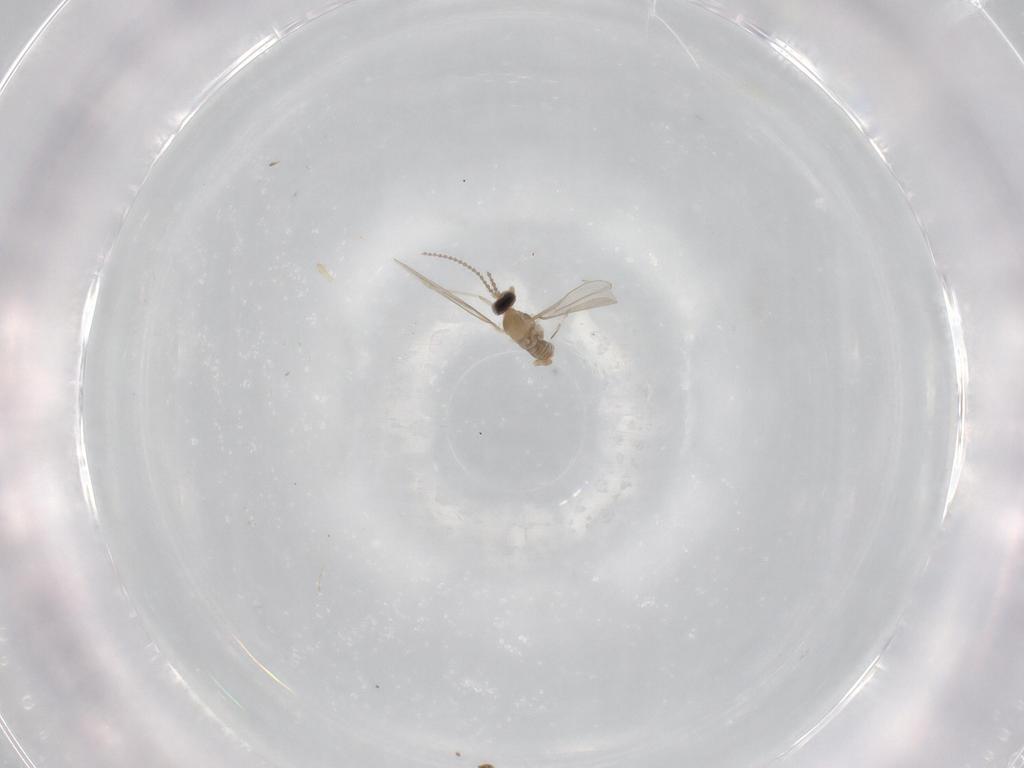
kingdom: Animalia
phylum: Arthropoda
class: Insecta
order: Diptera
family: Cecidomyiidae
